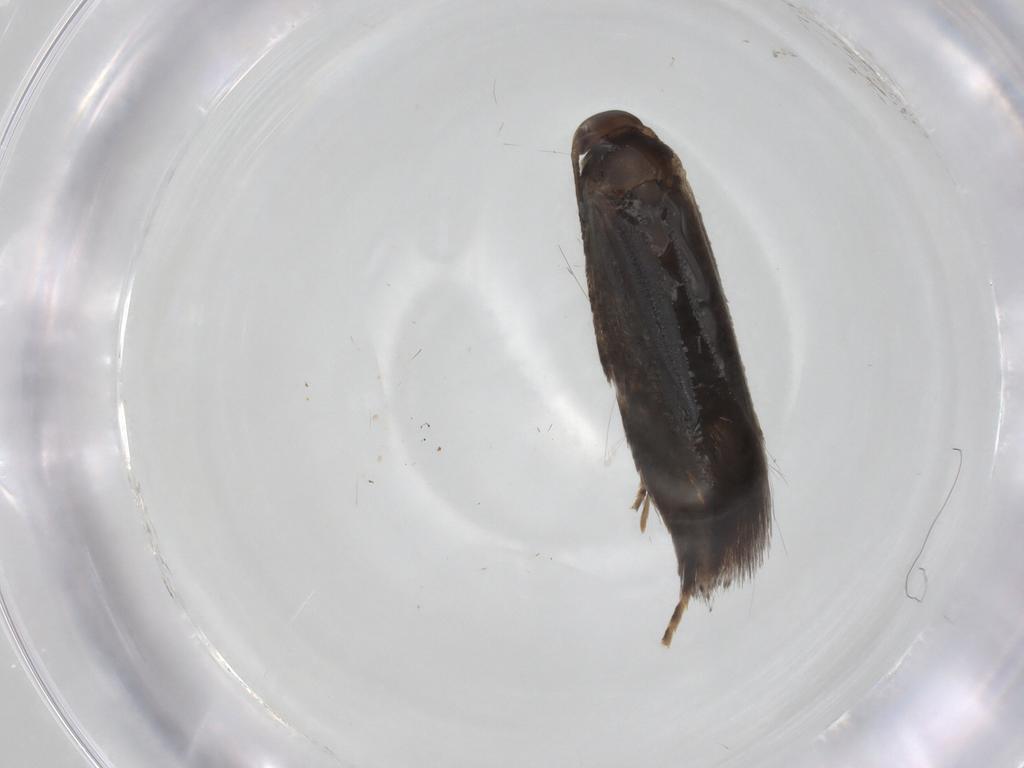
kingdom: Animalia
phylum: Arthropoda
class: Insecta
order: Lepidoptera
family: Elachistidae
